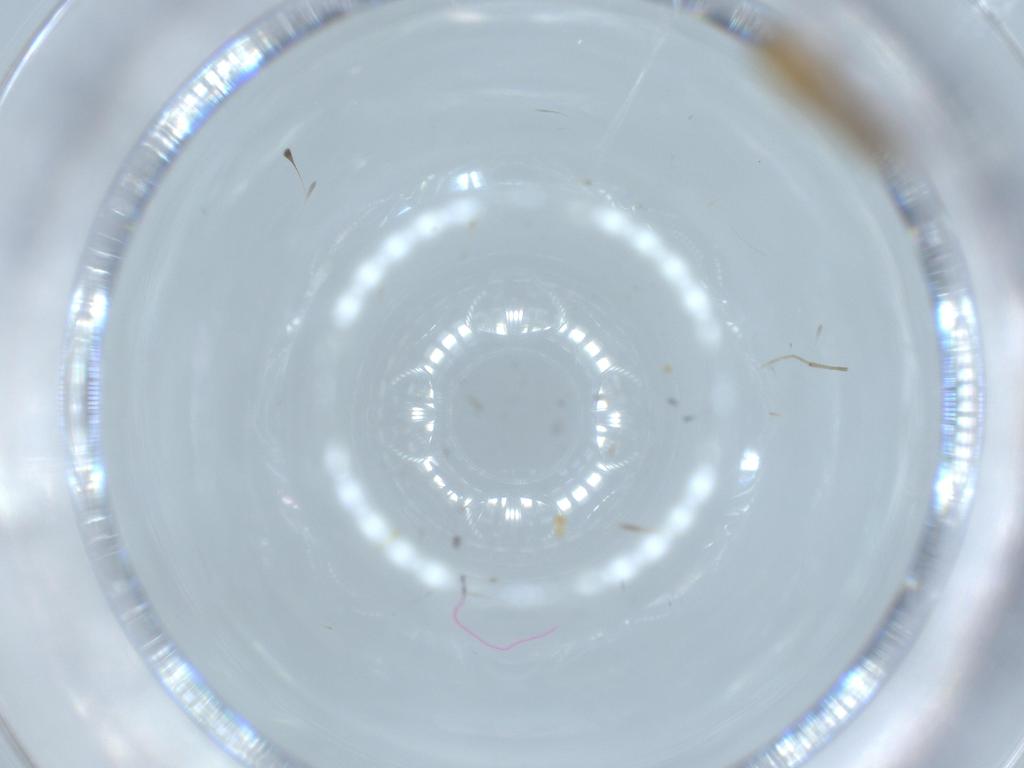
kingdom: Animalia
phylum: Arthropoda
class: Insecta
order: Diptera
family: Chironomidae
